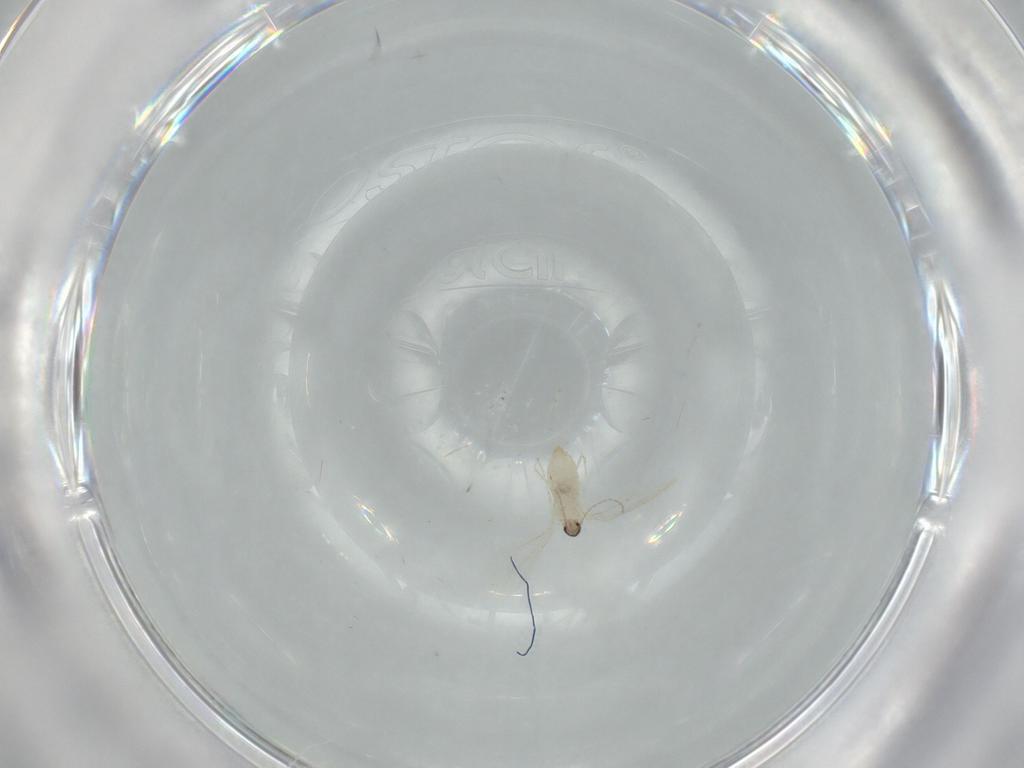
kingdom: Animalia
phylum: Arthropoda
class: Insecta
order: Diptera
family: Cecidomyiidae
